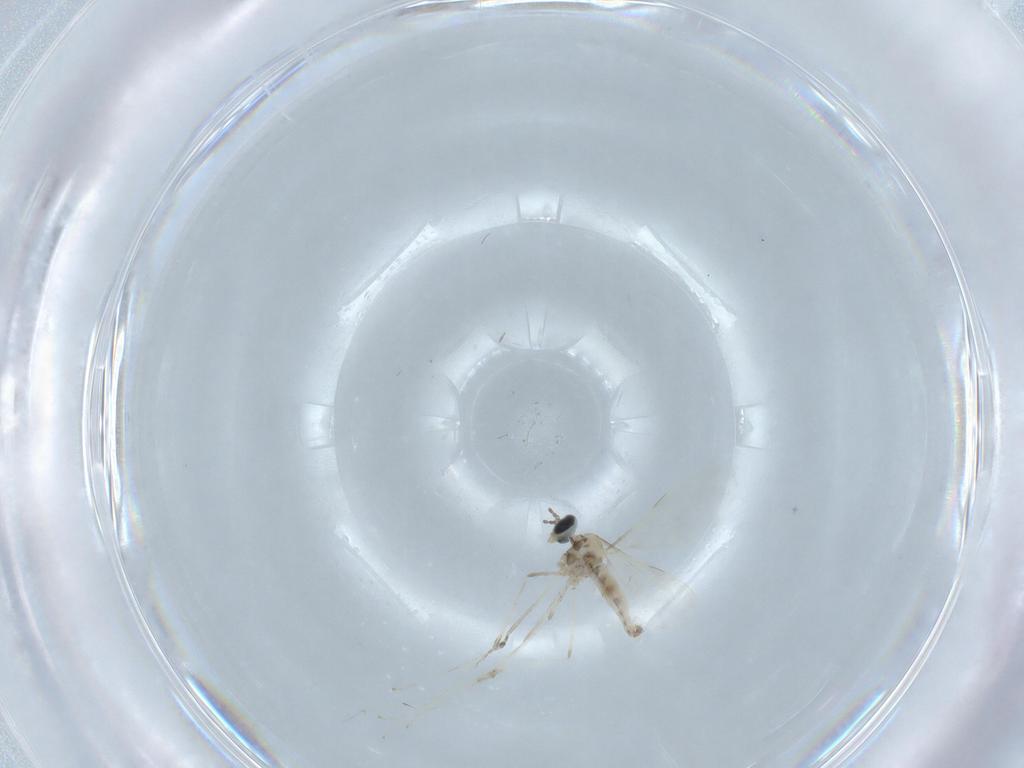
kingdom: Animalia
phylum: Arthropoda
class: Insecta
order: Diptera
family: Cecidomyiidae
